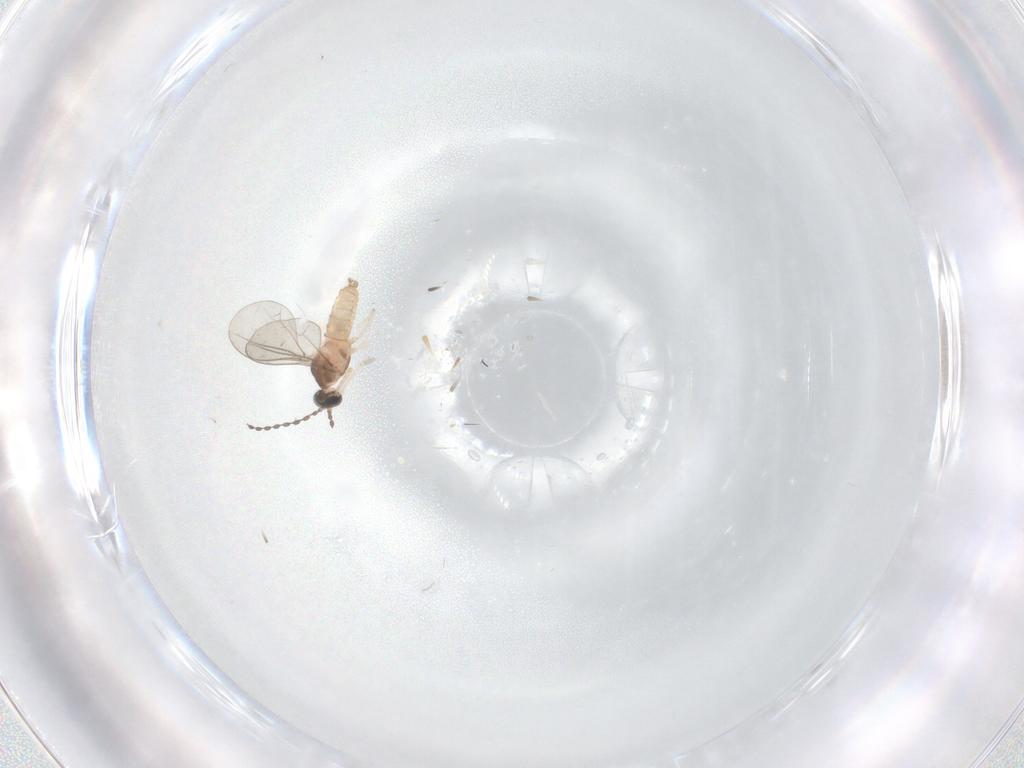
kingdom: Animalia
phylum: Arthropoda
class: Insecta
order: Diptera
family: Cecidomyiidae
